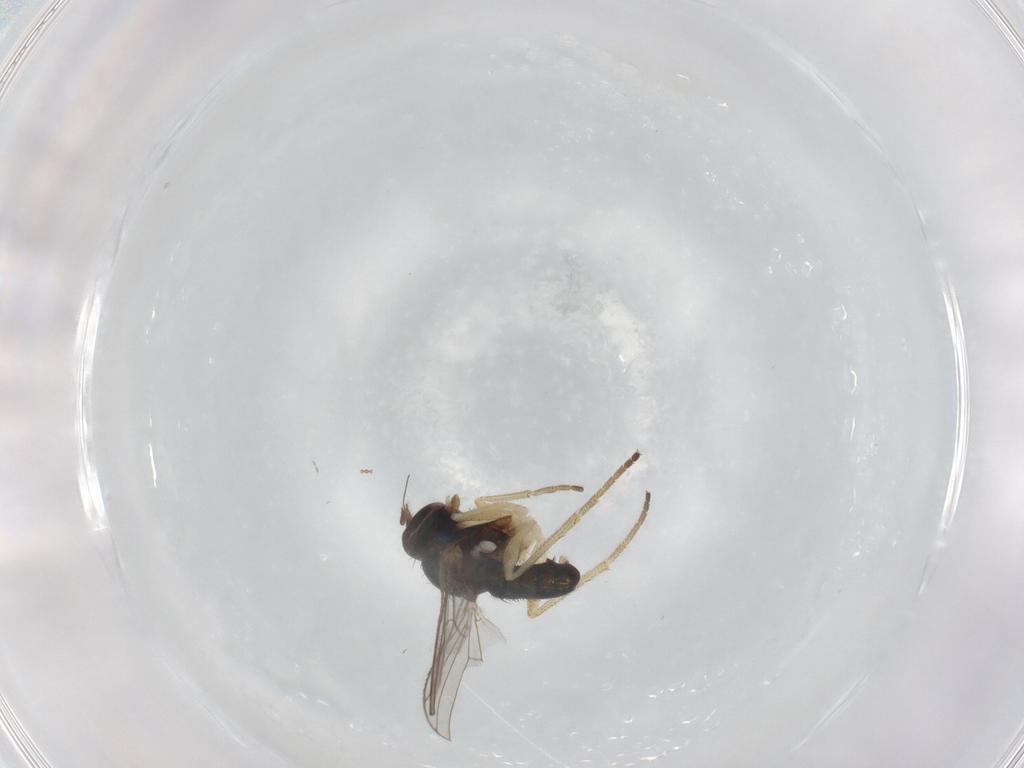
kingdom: Animalia
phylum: Arthropoda
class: Insecta
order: Diptera
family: Dolichopodidae
